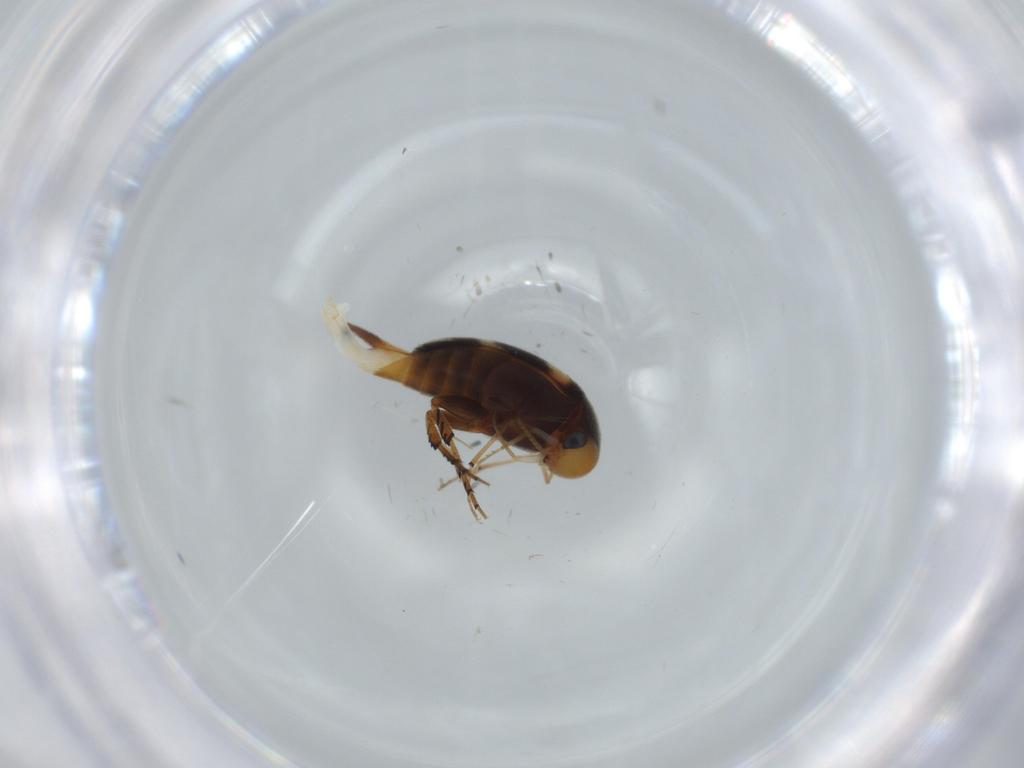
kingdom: Animalia
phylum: Arthropoda
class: Insecta
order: Coleoptera
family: Mordellidae
